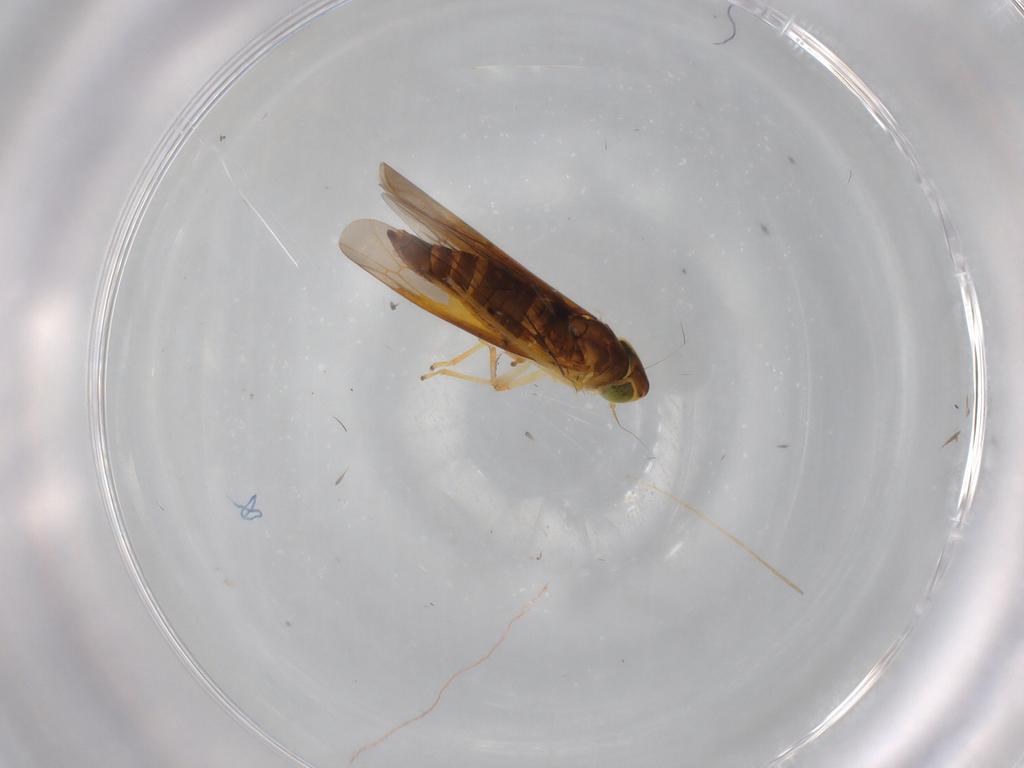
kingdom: Animalia
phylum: Arthropoda
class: Insecta
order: Hemiptera
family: Cicadellidae
